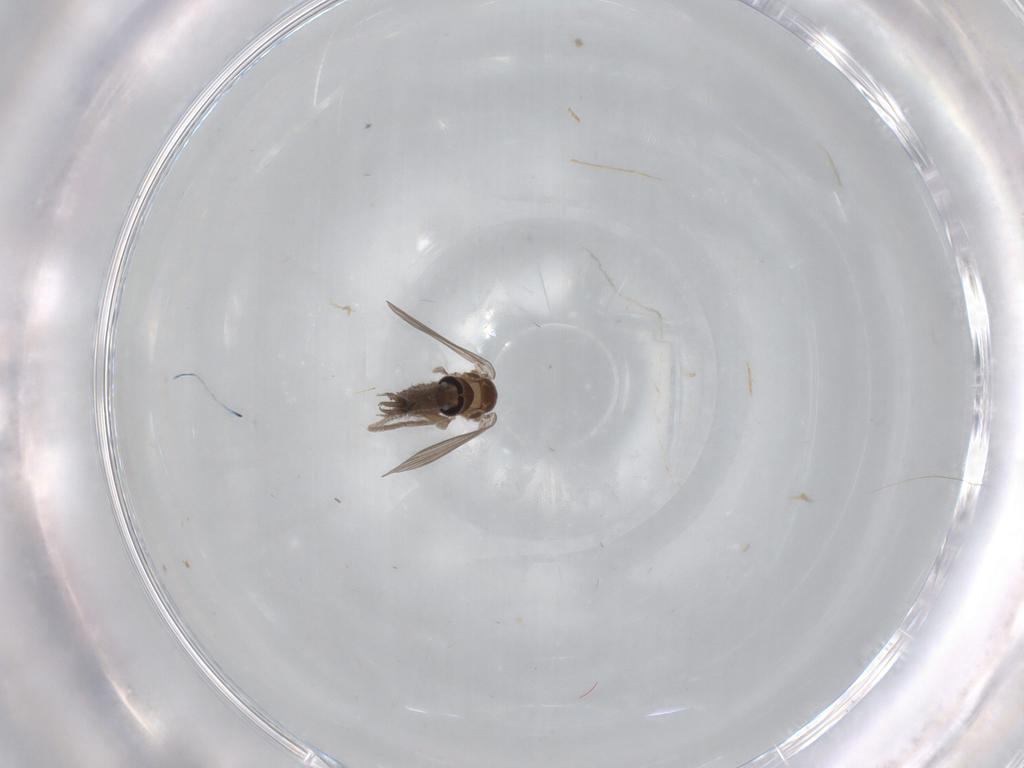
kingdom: Animalia
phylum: Arthropoda
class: Insecta
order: Diptera
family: Psychodidae
